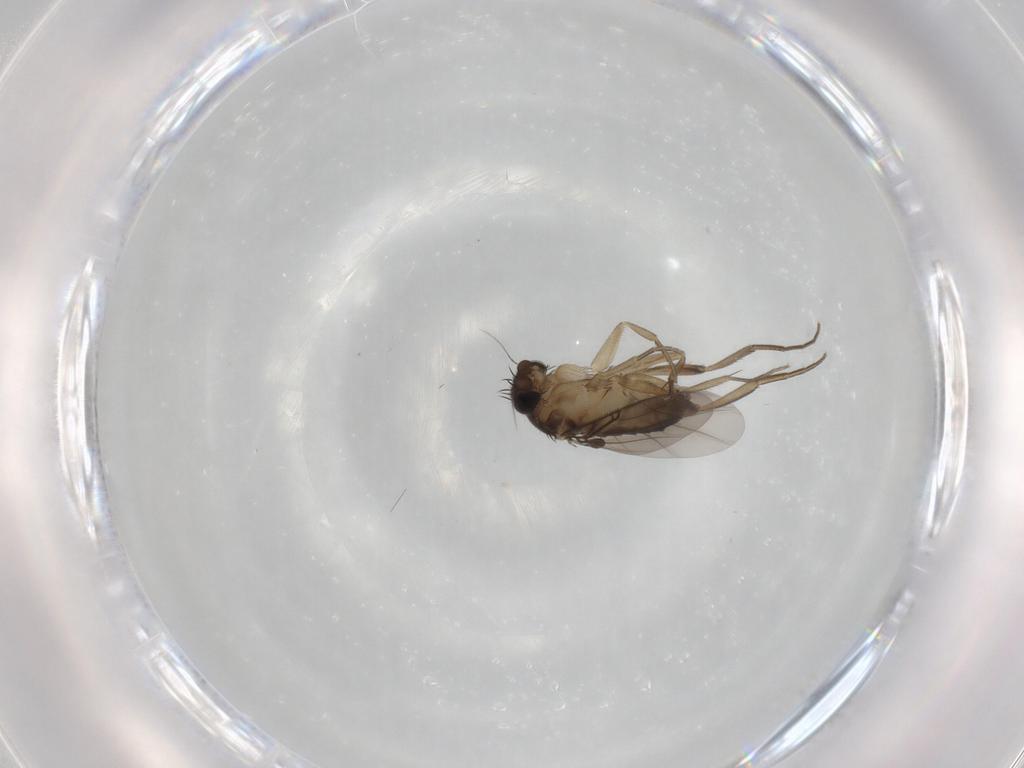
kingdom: Animalia
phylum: Arthropoda
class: Insecta
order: Diptera
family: Phoridae
